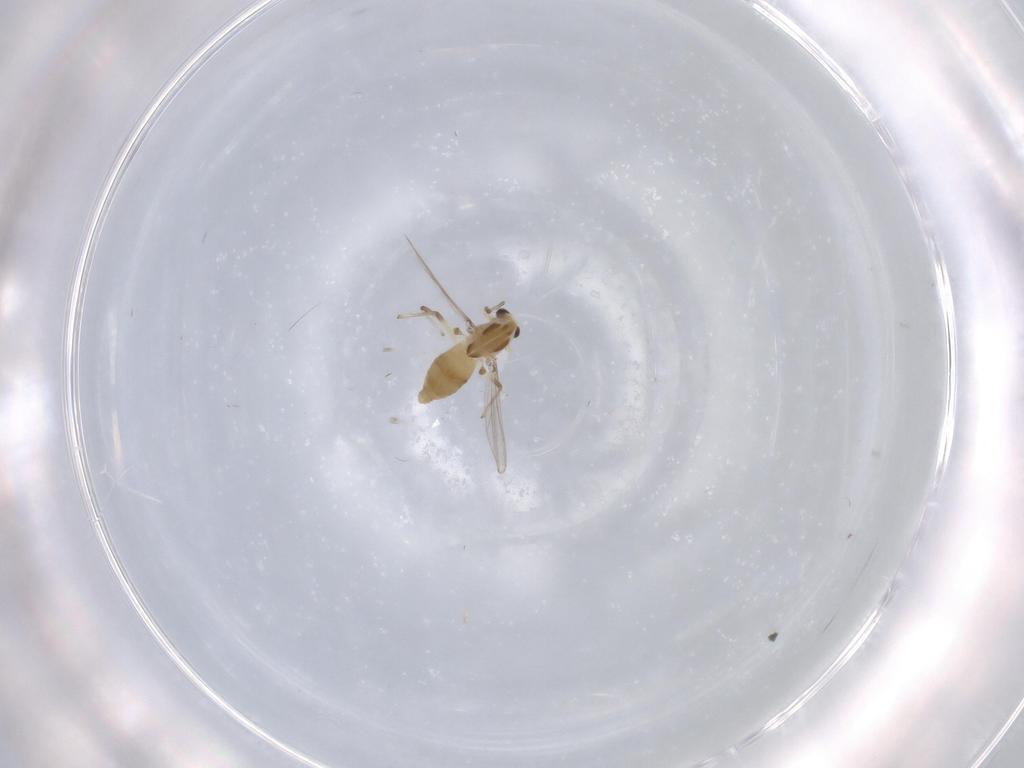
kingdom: Animalia
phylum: Arthropoda
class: Insecta
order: Diptera
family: Chironomidae
